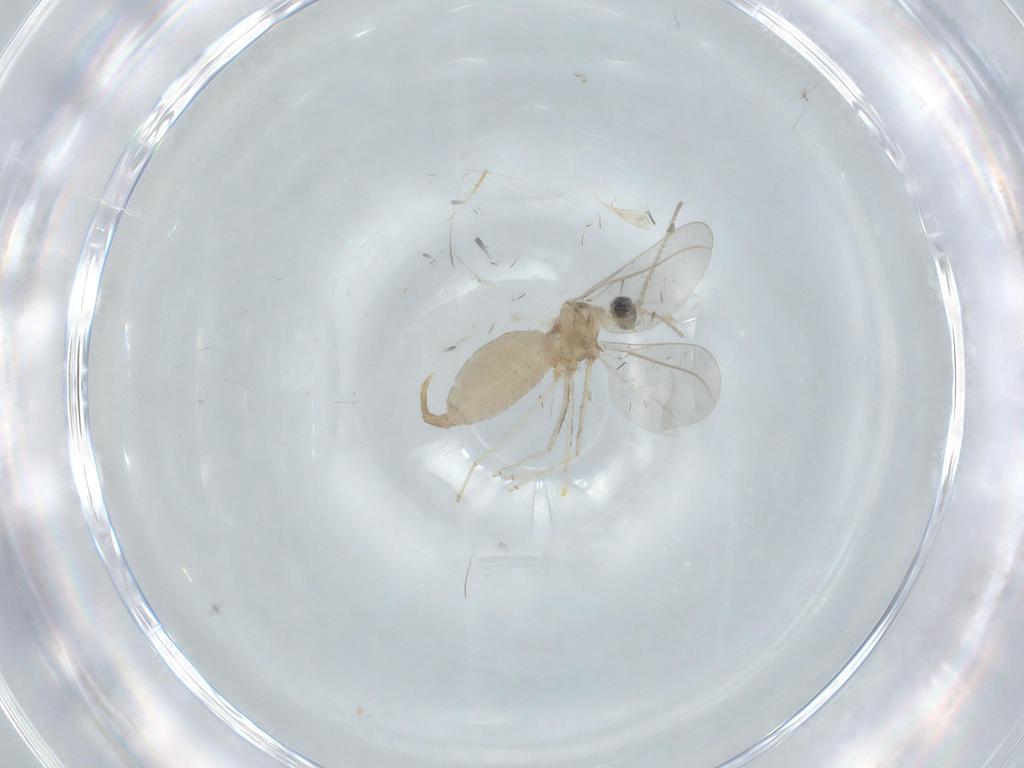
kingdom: Animalia
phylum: Arthropoda
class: Insecta
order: Diptera
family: Cecidomyiidae
